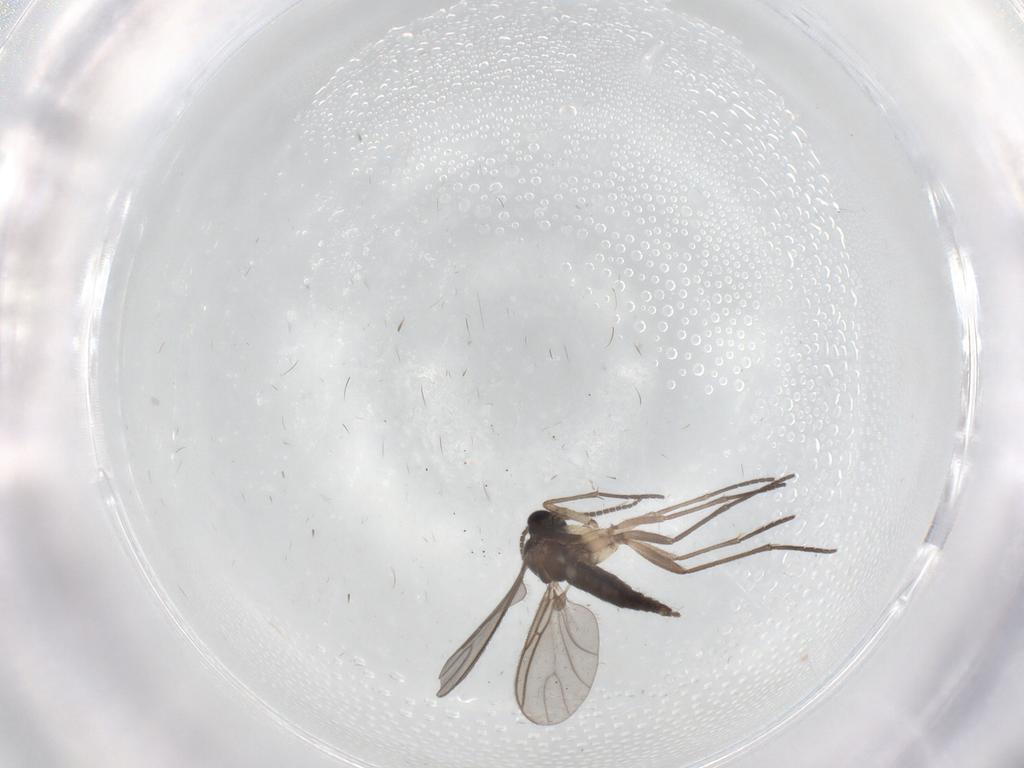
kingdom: Animalia
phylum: Arthropoda
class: Insecta
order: Diptera
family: Sciaridae
